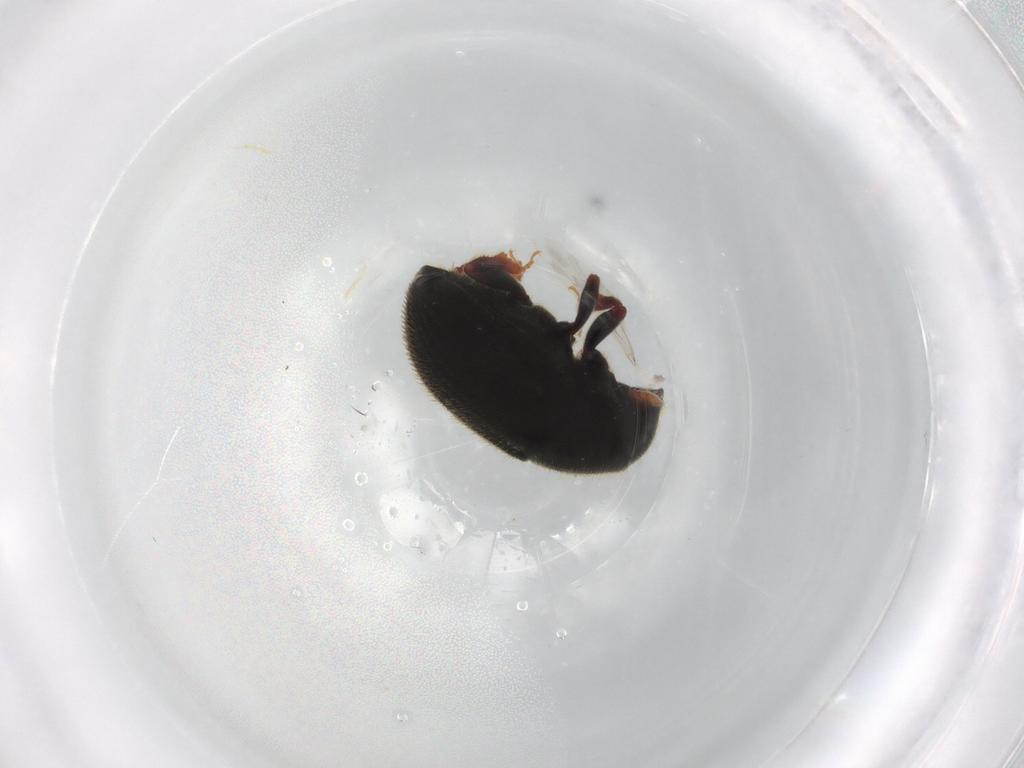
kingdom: Animalia
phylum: Arthropoda
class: Insecta
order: Coleoptera
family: Curculionidae
